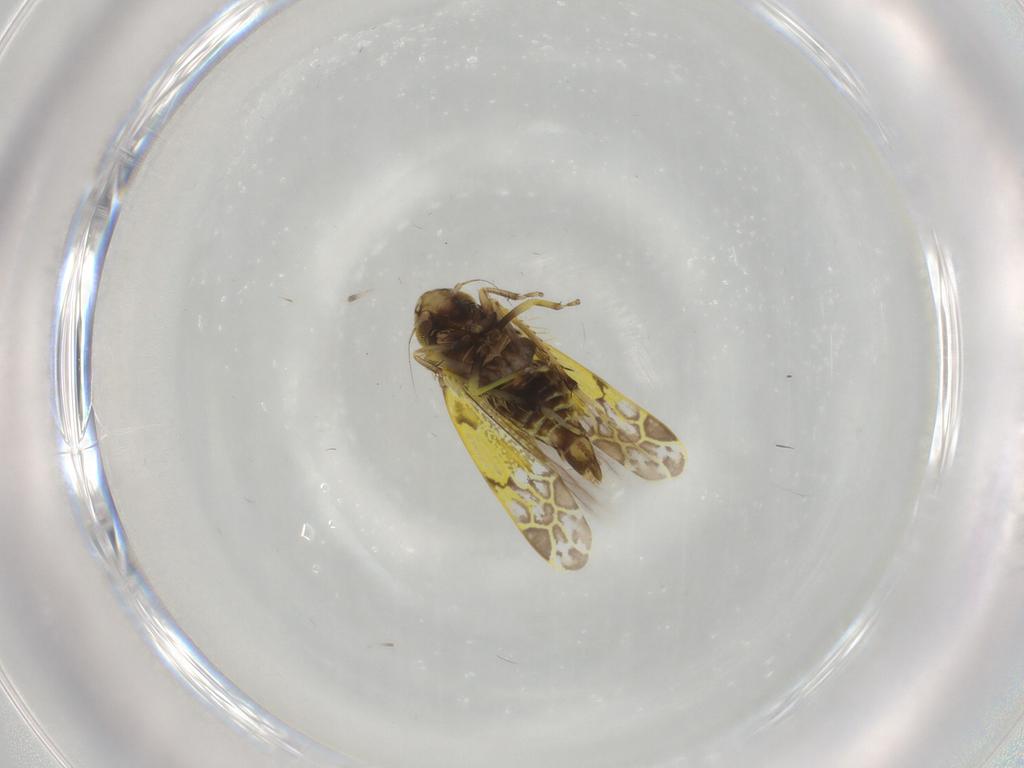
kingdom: Animalia
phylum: Arthropoda
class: Insecta
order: Hemiptera
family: Cicadellidae
